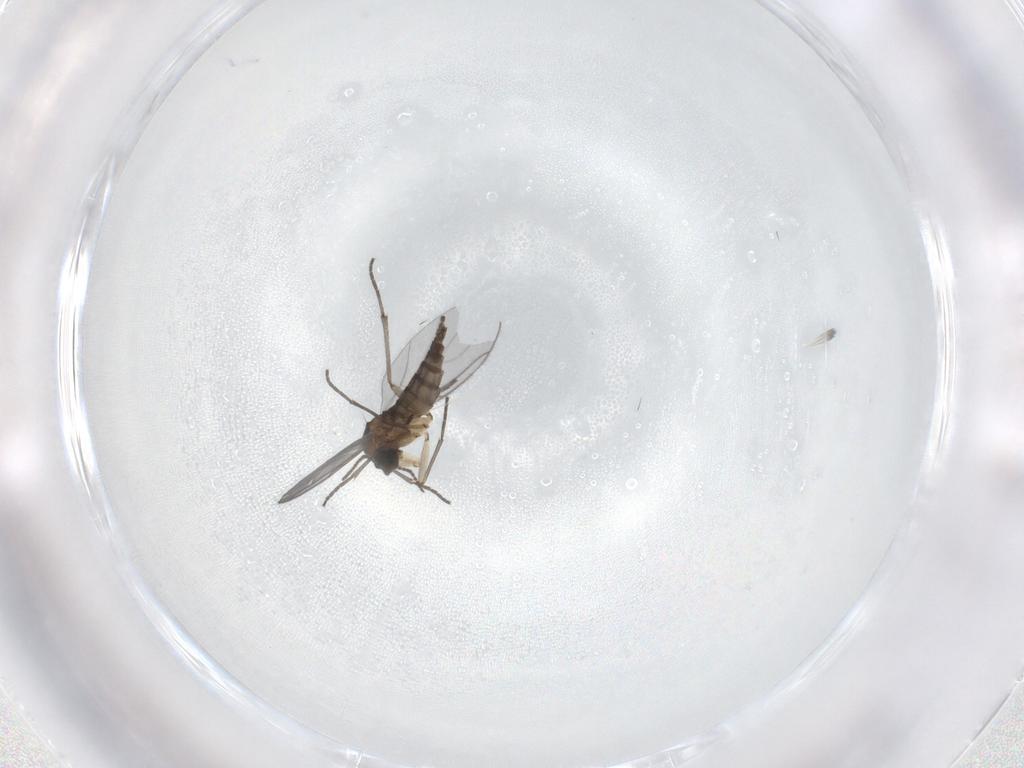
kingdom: Animalia
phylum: Arthropoda
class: Insecta
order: Diptera
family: Sciaridae
